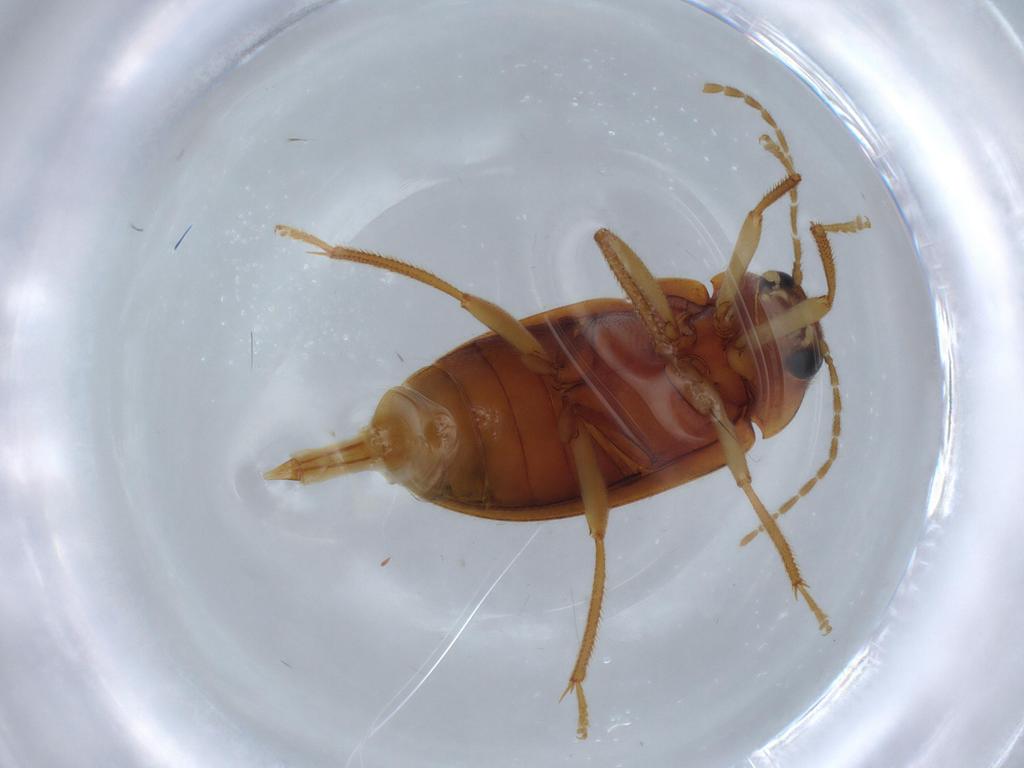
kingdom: Animalia
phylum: Arthropoda
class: Insecta
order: Coleoptera
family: Ptilodactylidae
